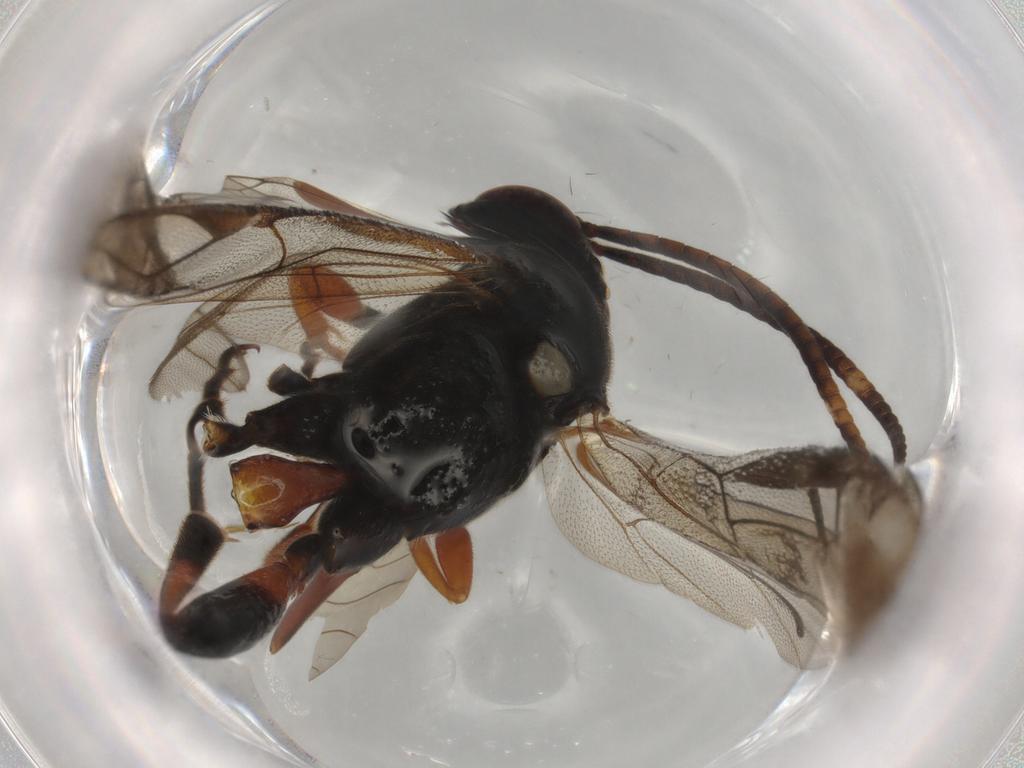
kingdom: Animalia
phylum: Arthropoda
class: Insecta
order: Hymenoptera
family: Ichneumonidae
